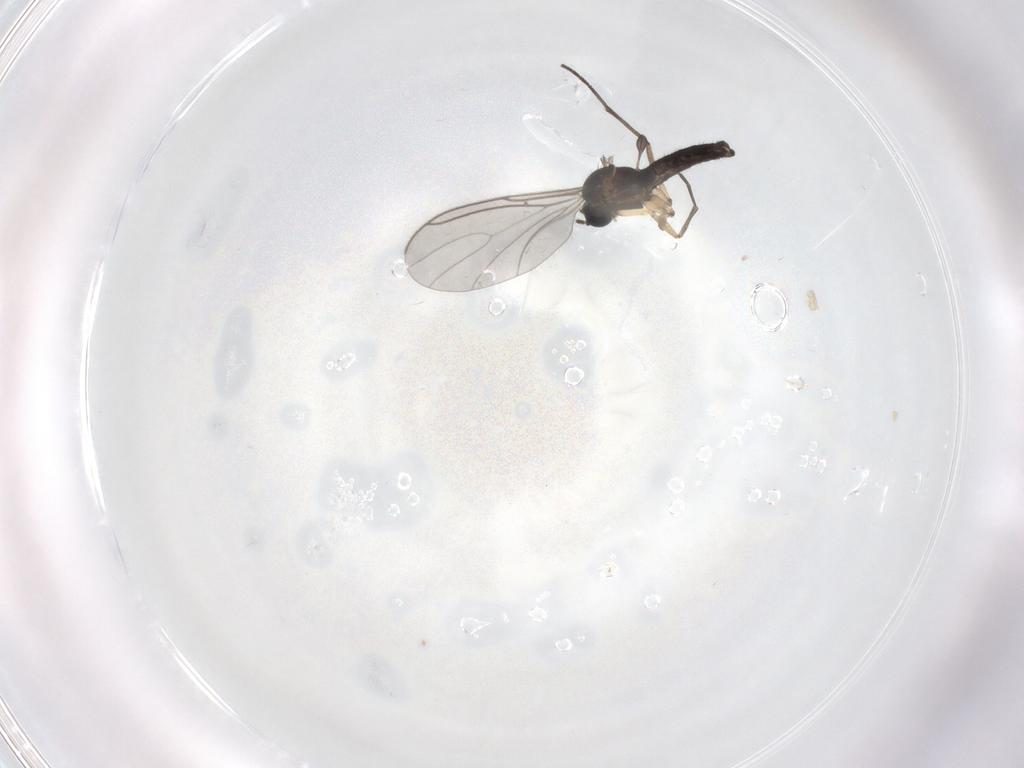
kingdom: Animalia
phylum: Arthropoda
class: Insecta
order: Diptera
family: Sciaridae
